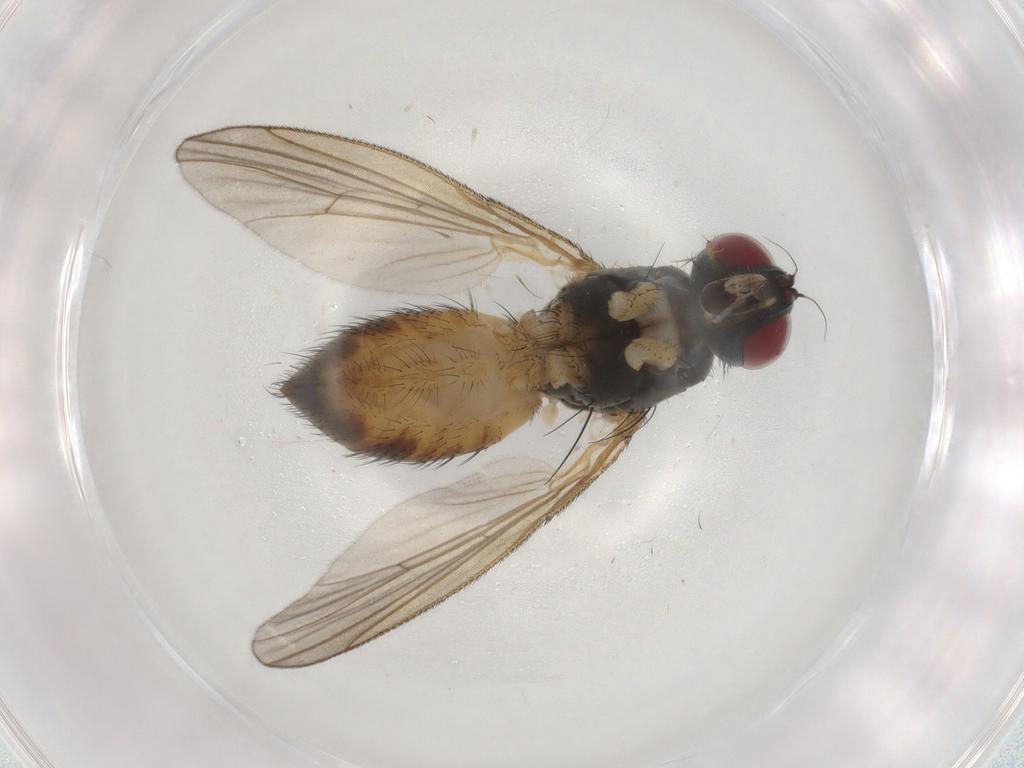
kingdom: Animalia
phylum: Arthropoda
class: Insecta
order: Diptera
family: Muscidae
